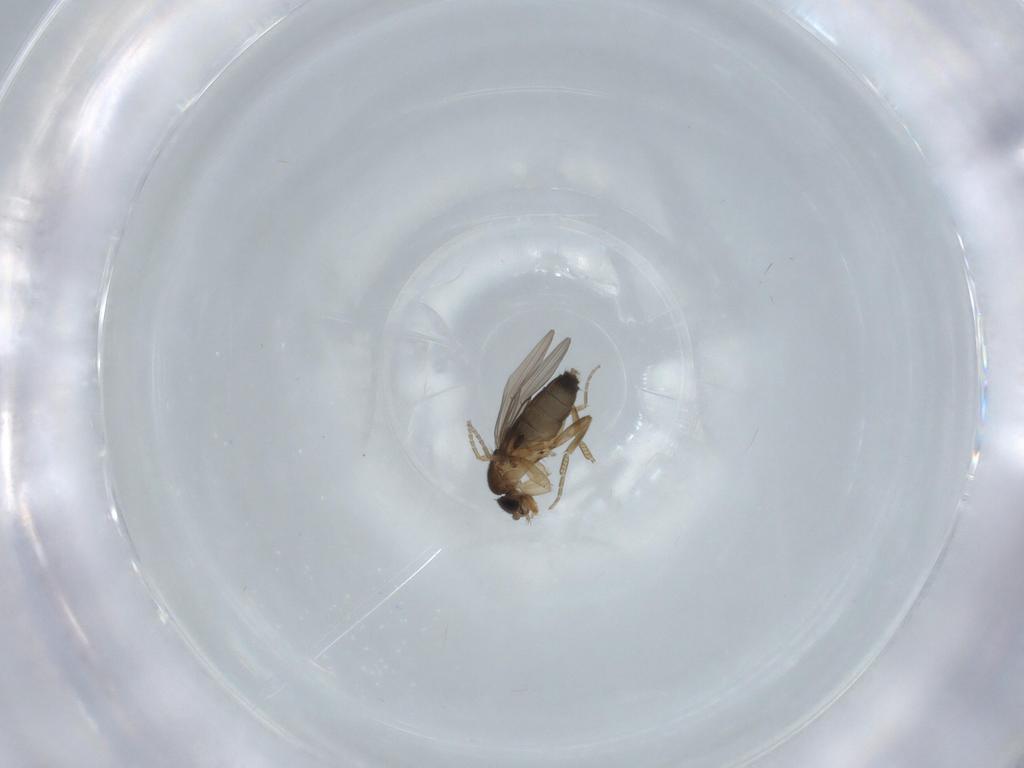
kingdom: Animalia
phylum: Arthropoda
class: Insecta
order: Diptera
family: Phoridae
